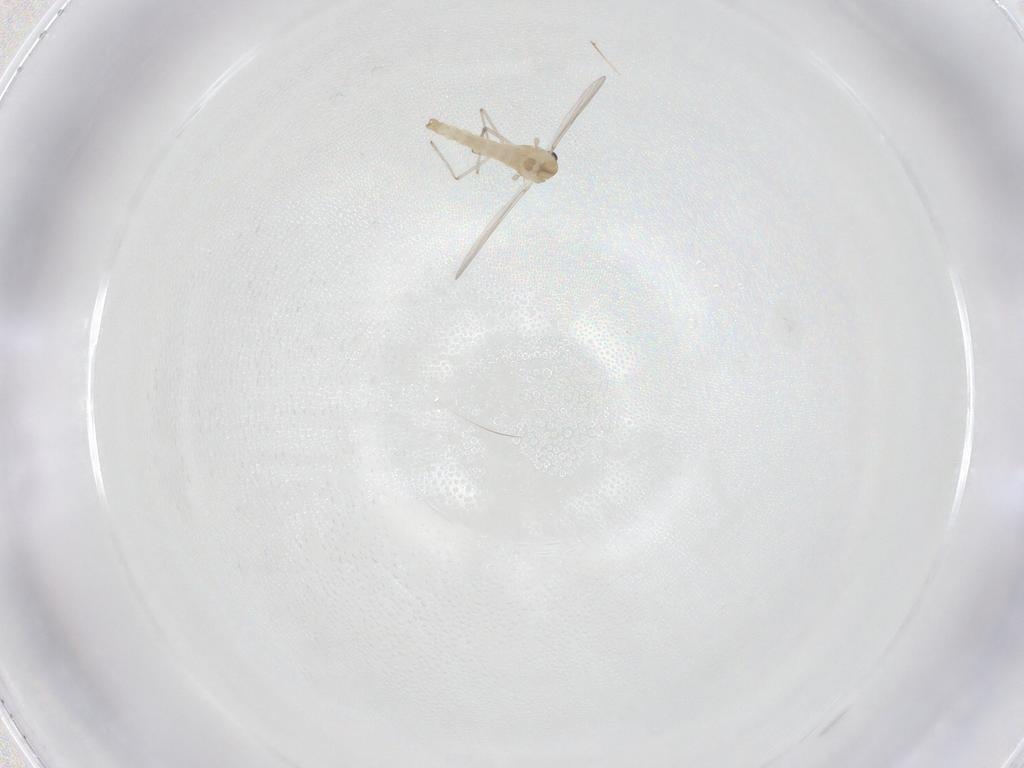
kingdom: Animalia
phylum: Arthropoda
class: Insecta
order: Diptera
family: Chironomidae
